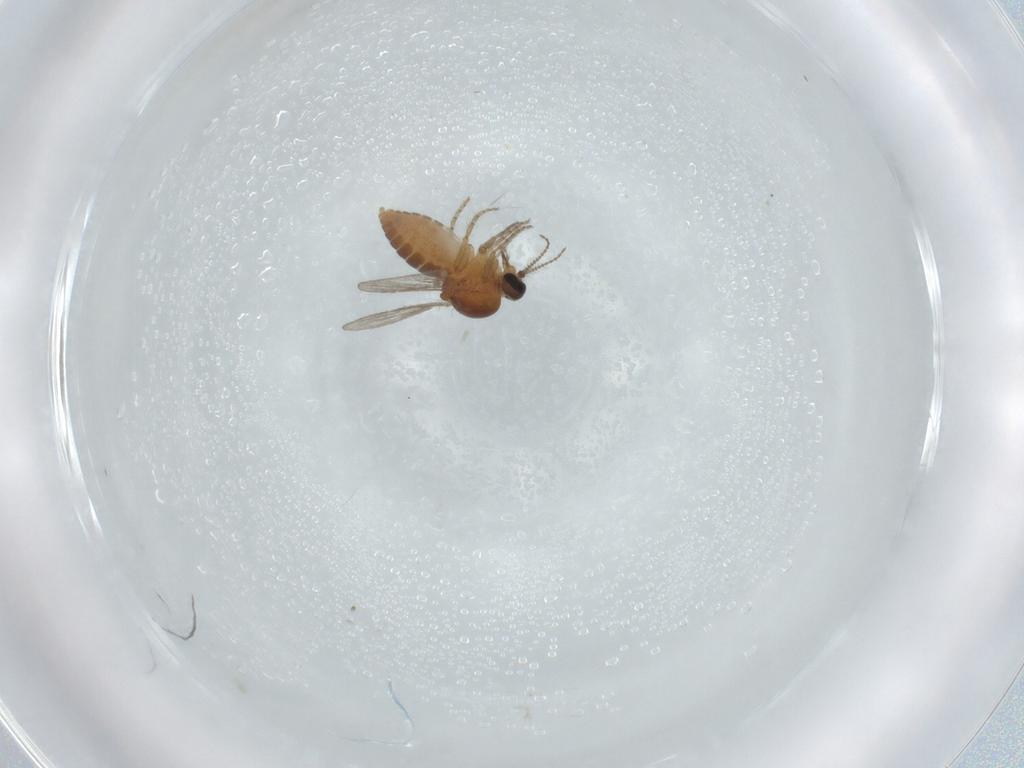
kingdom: Animalia
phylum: Arthropoda
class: Insecta
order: Diptera
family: Ceratopogonidae
